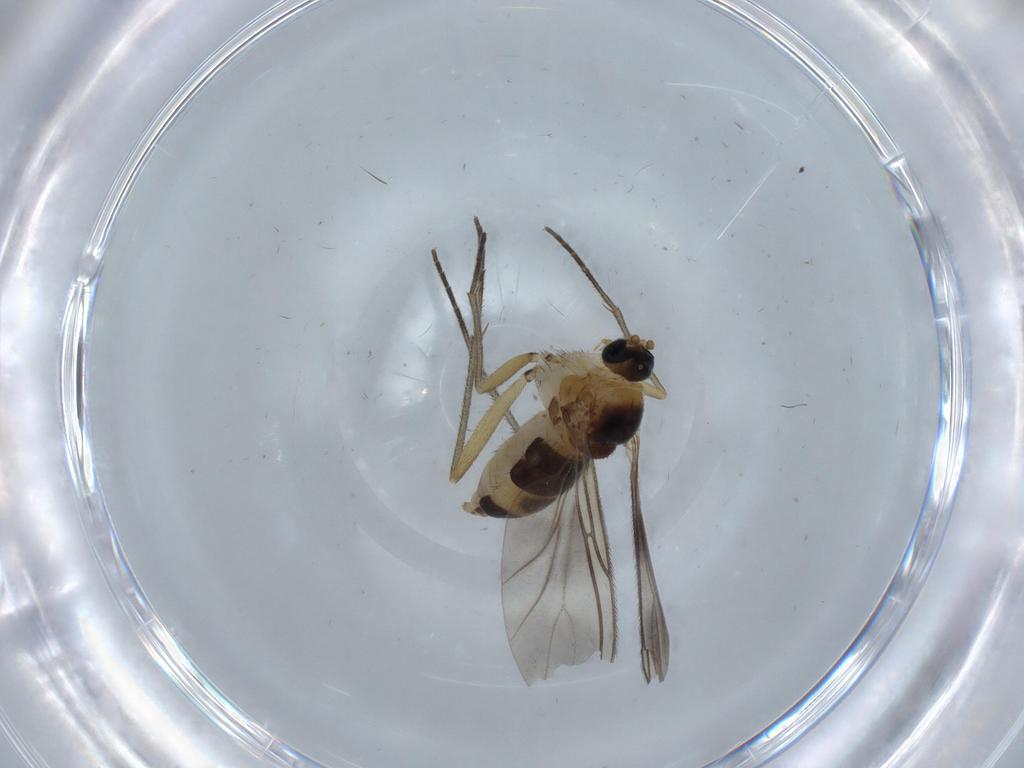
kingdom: Animalia
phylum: Arthropoda
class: Insecta
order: Diptera
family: Sciaridae
